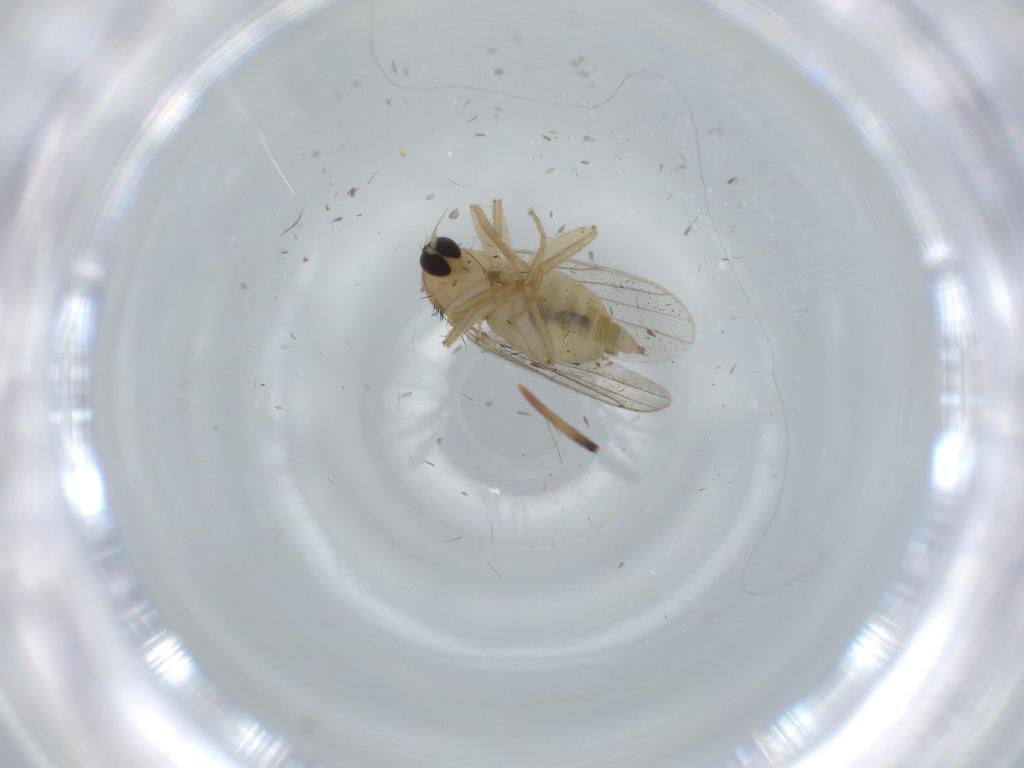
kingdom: Animalia
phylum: Arthropoda
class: Insecta
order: Diptera
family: Hybotidae
